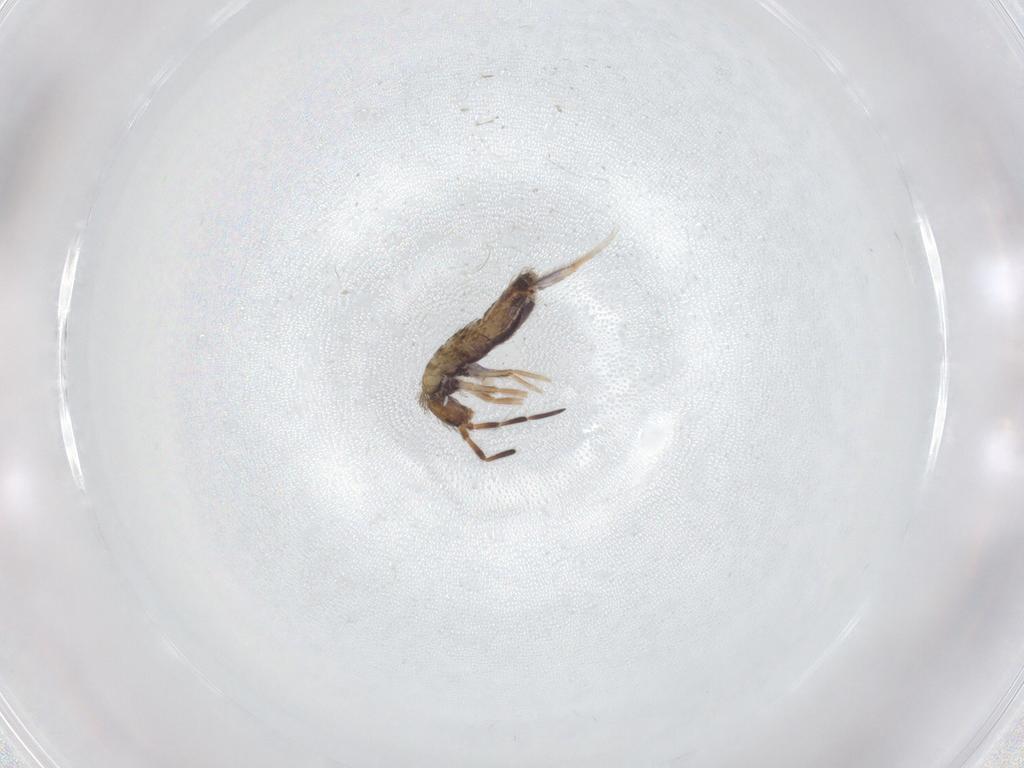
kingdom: Animalia
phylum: Arthropoda
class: Collembola
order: Entomobryomorpha
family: Entomobryidae
